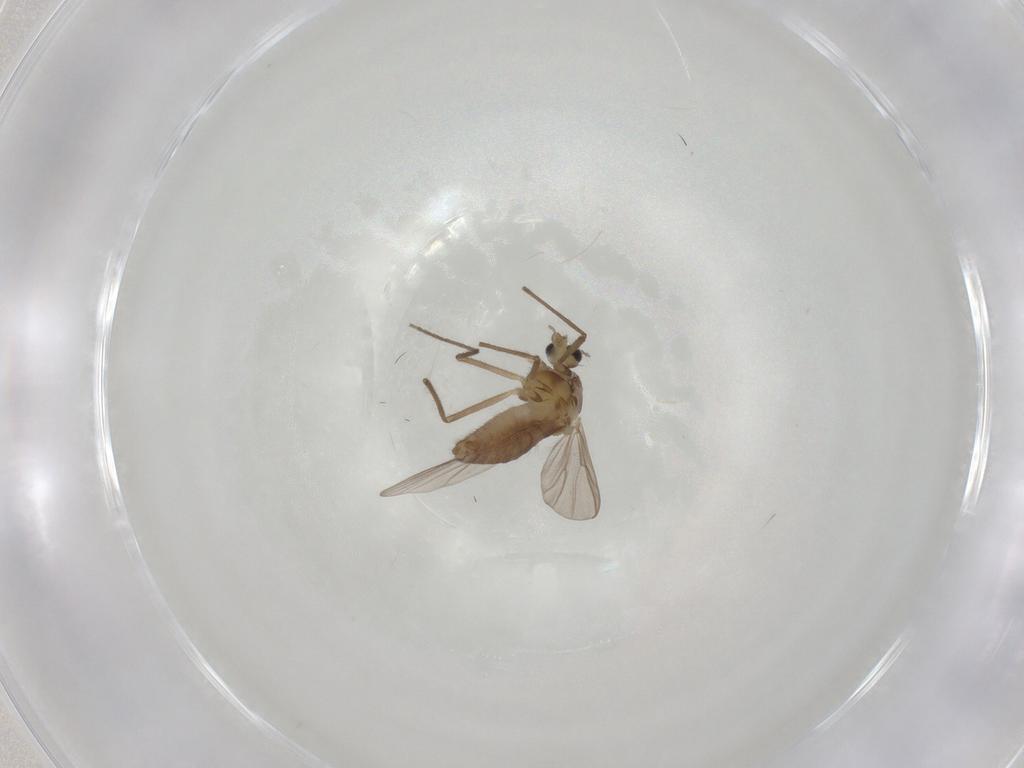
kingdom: Animalia
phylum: Arthropoda
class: Insecta
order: Diptera
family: Chironomidae
